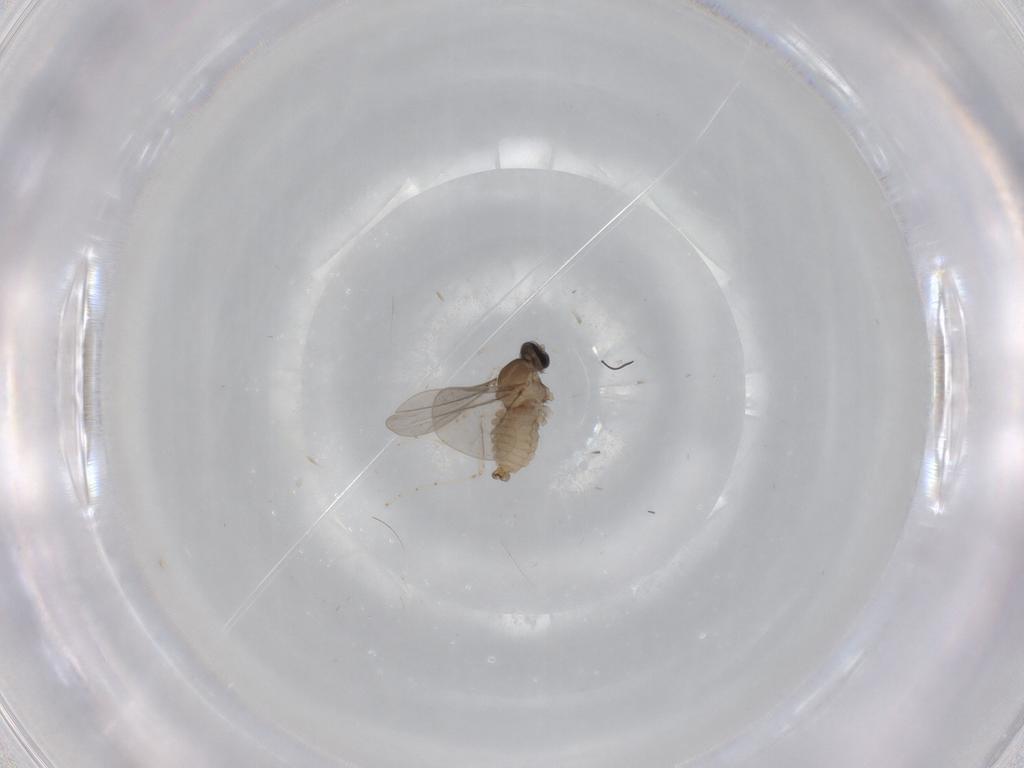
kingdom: Animalia
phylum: Arthropoda
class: Insecta
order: Diptera
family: Cecidomyiidae
